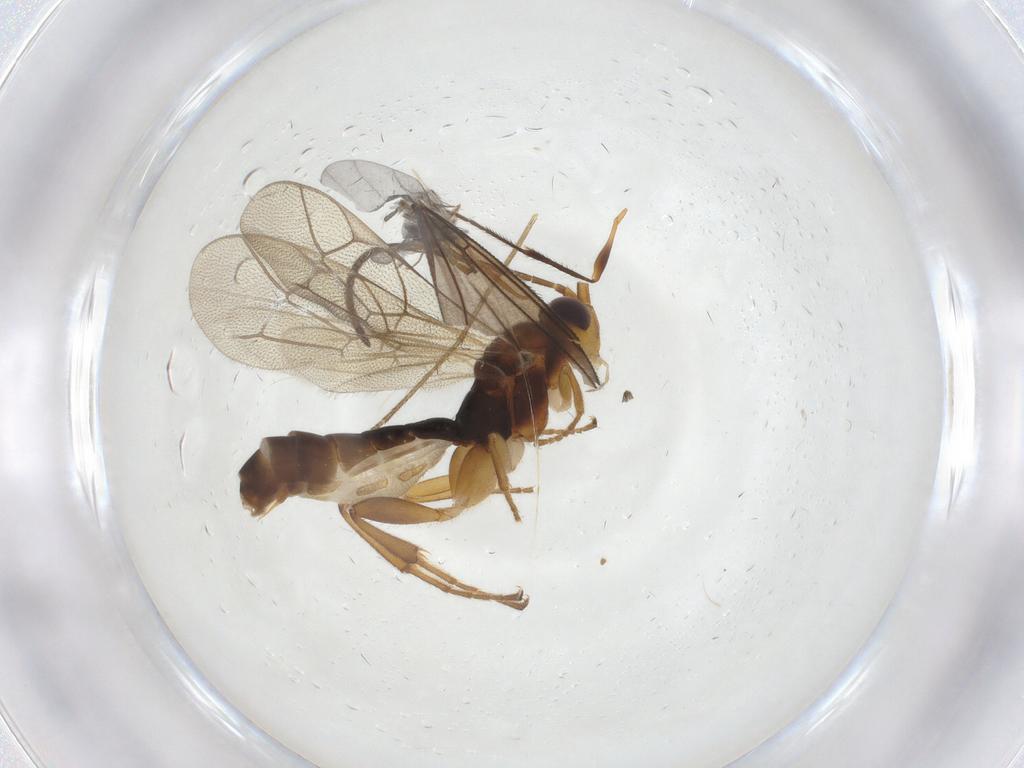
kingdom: Animalia
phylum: Arthropoda
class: Insecta
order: Hymenoptera
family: Ichneumonidae
